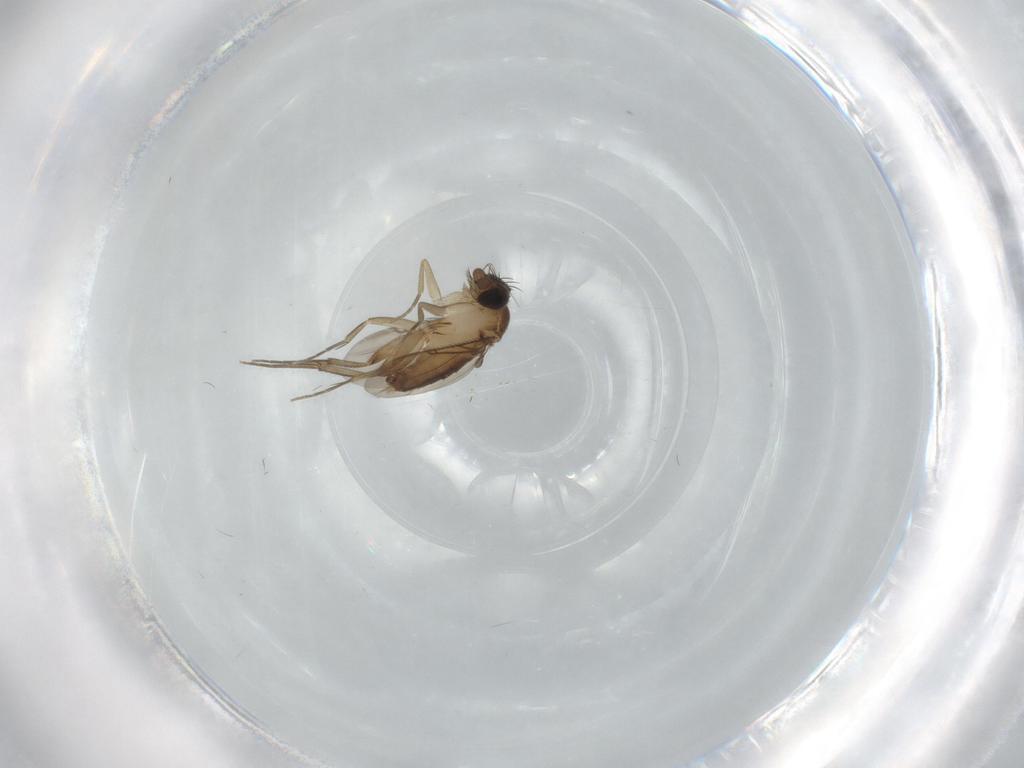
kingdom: Animalia
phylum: Arthropoda
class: Insecta
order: Diptera
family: Phoridae
